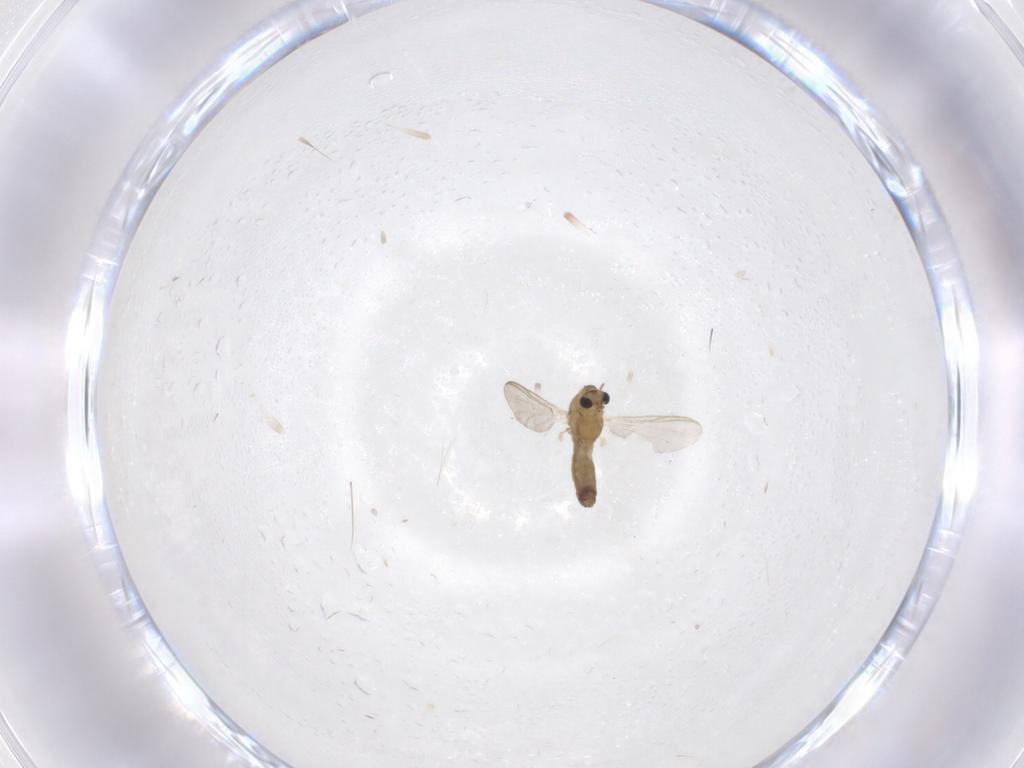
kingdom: Animalia
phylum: Arthropoda
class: Insecta
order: Diptera
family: Chironomidae
